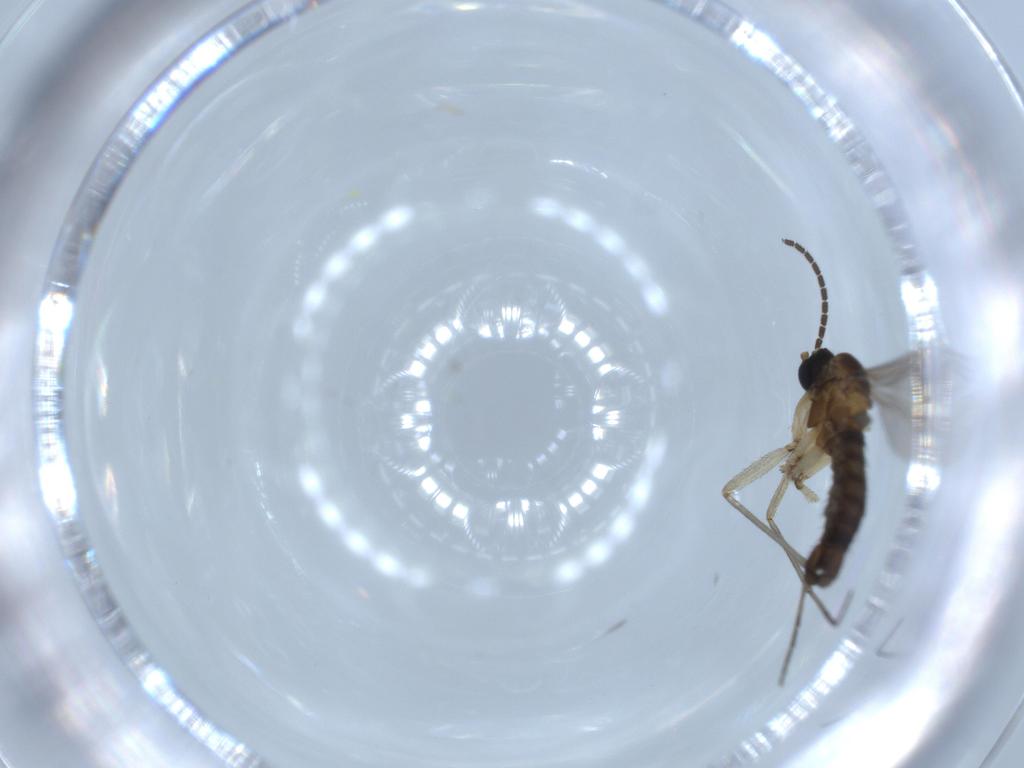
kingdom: Animalia
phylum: Arthropoda
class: Insecta
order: Diptera
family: Sciaridae
